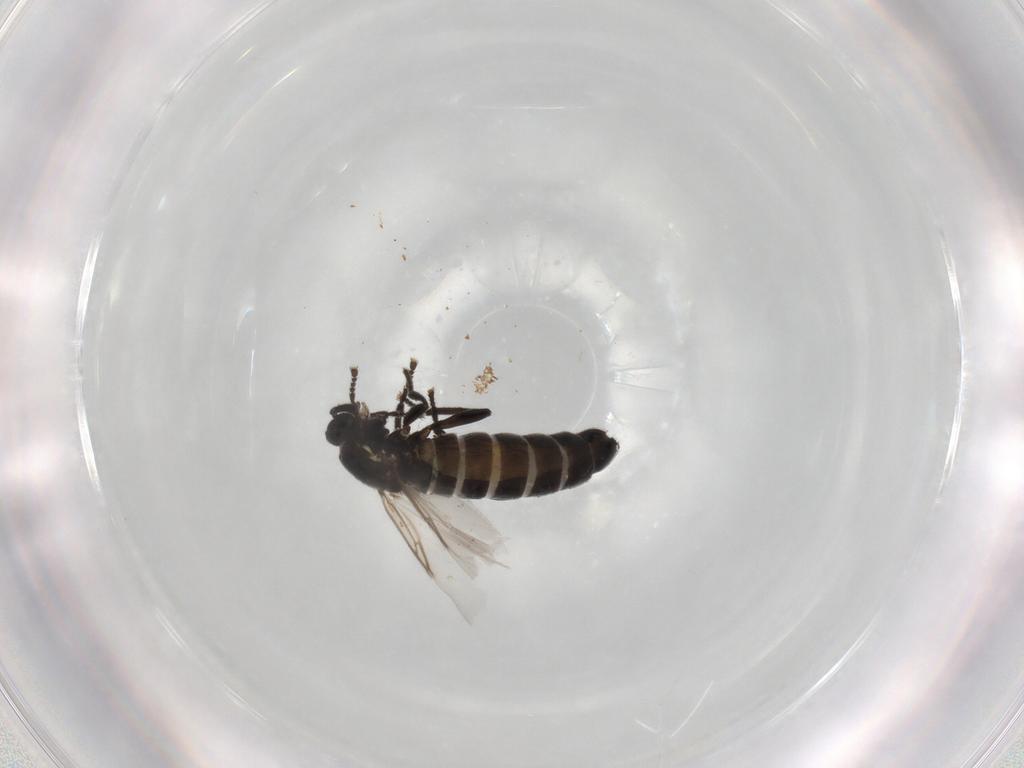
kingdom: Animalia
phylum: Arthropoda
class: Insecta
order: Diptera
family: Scatopsidae
